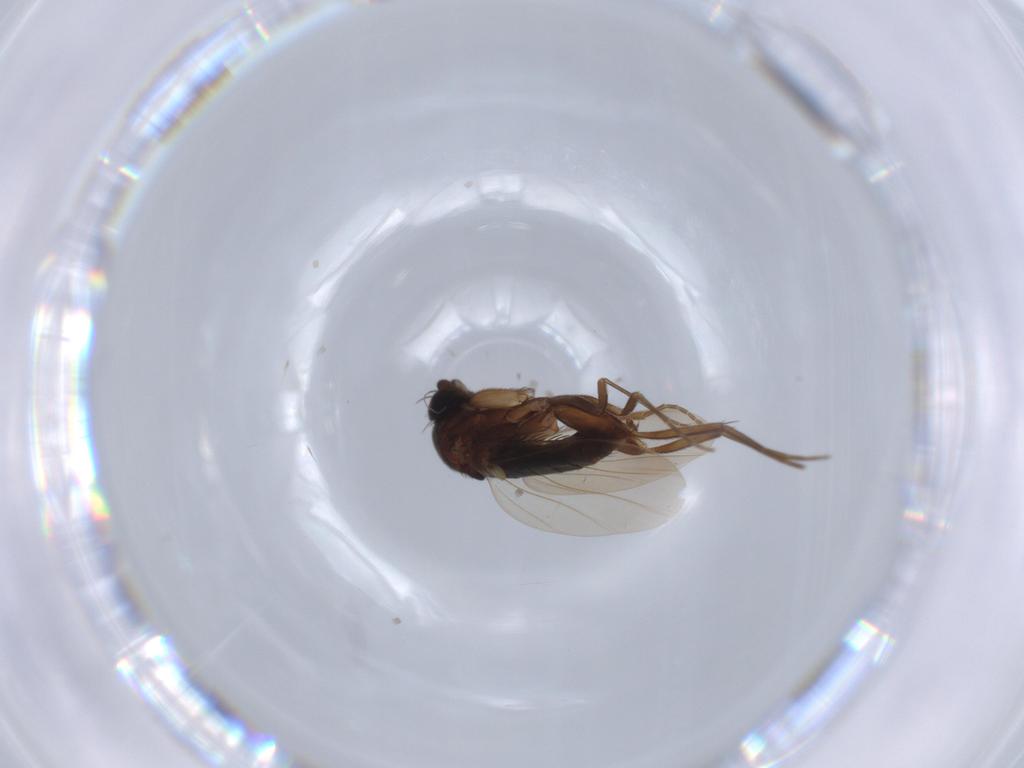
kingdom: Animalia
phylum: Arthropoda
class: Insecta
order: Diptera
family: Phoridae
